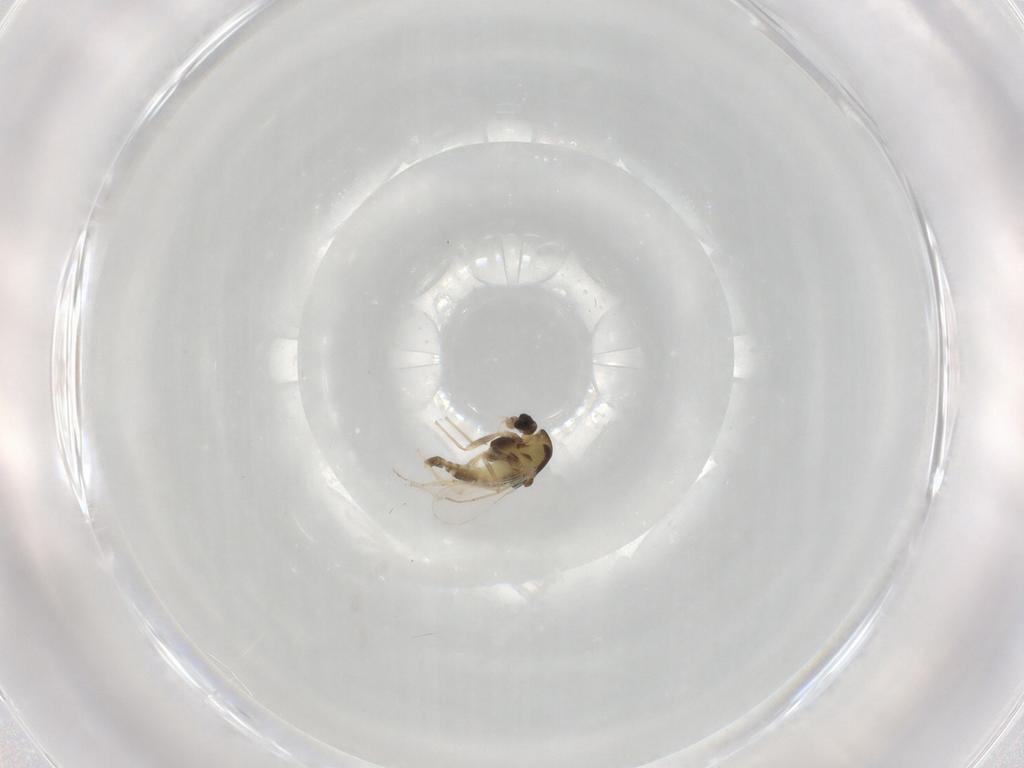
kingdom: Animalia
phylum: Arthropoda
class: Insecta
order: Diptera
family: Chironomidae
